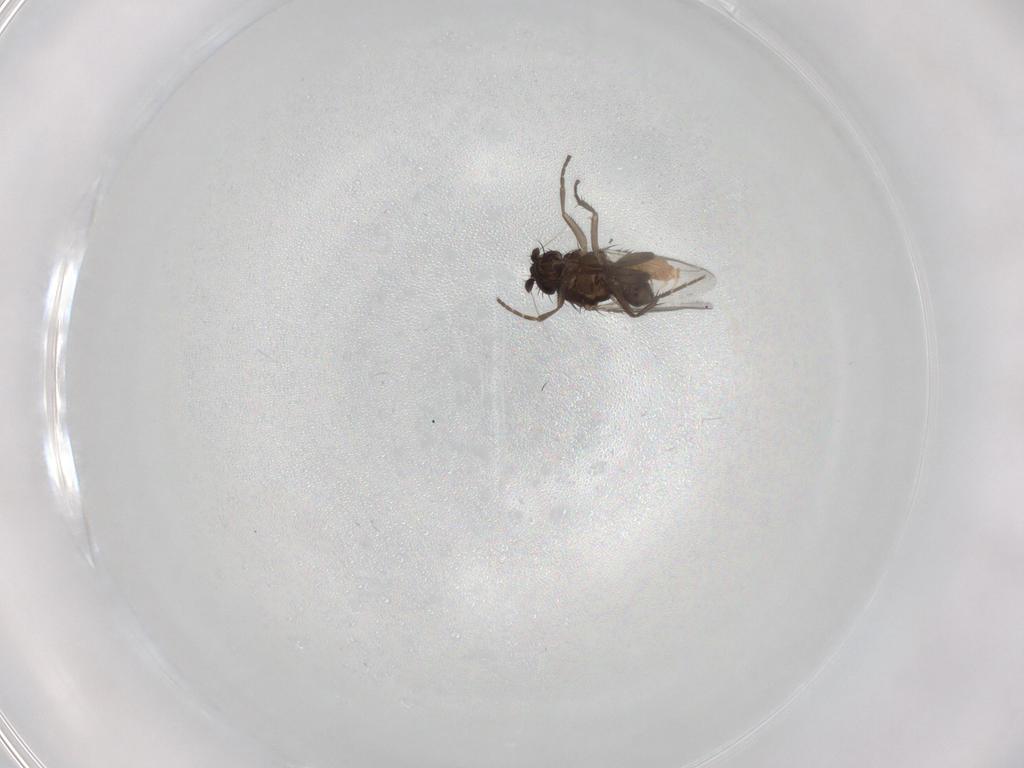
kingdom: Animalia
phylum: Arthropoda
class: Insecta
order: Diptera
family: Sphaeroceridae
